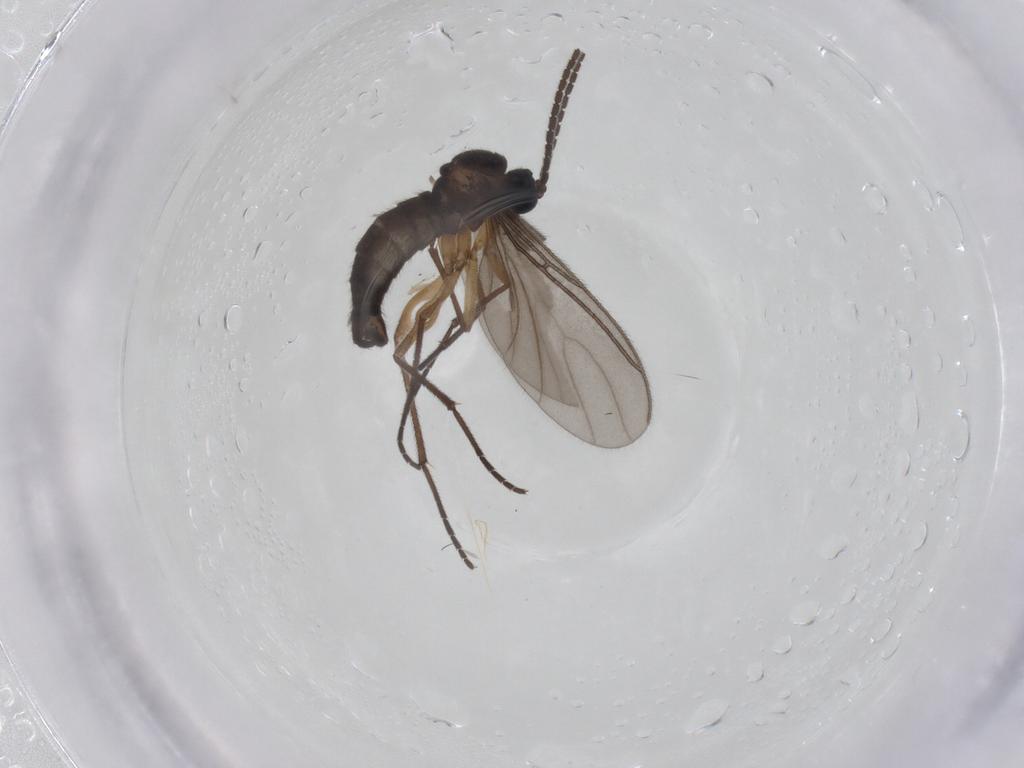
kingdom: Animalia
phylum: Arthropoda
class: Insecta
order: Diptera
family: Sciaridae
